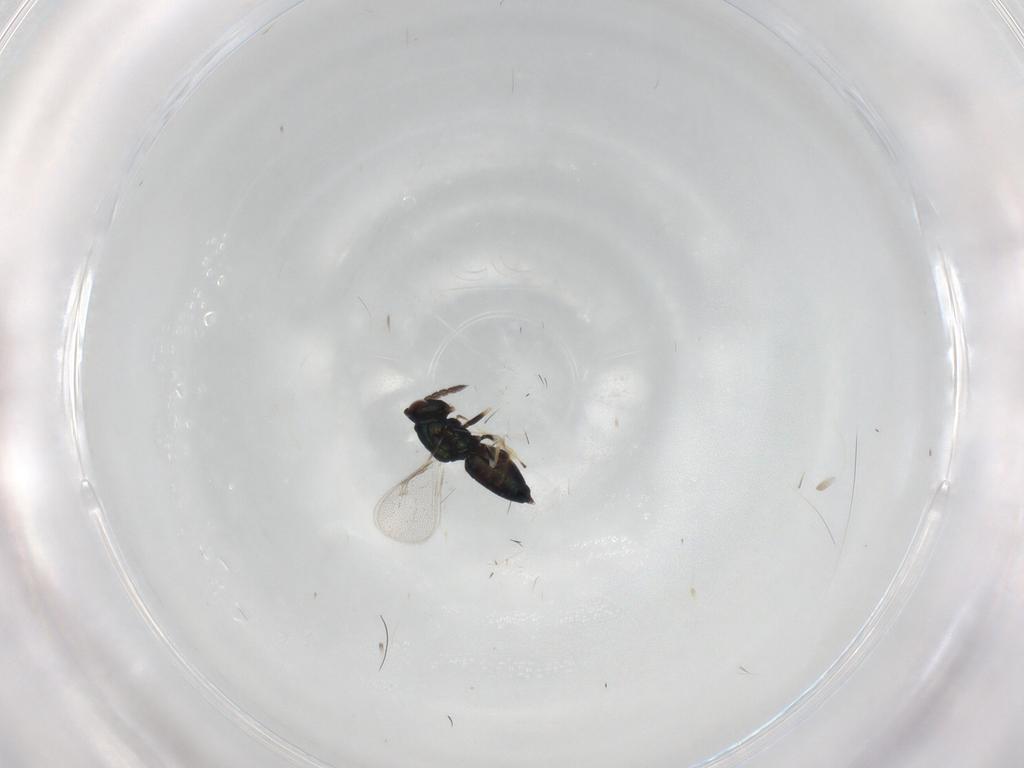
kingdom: Animalia
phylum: Arthropoda
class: Insecta
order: Hymenoptera
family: Eulophidae
